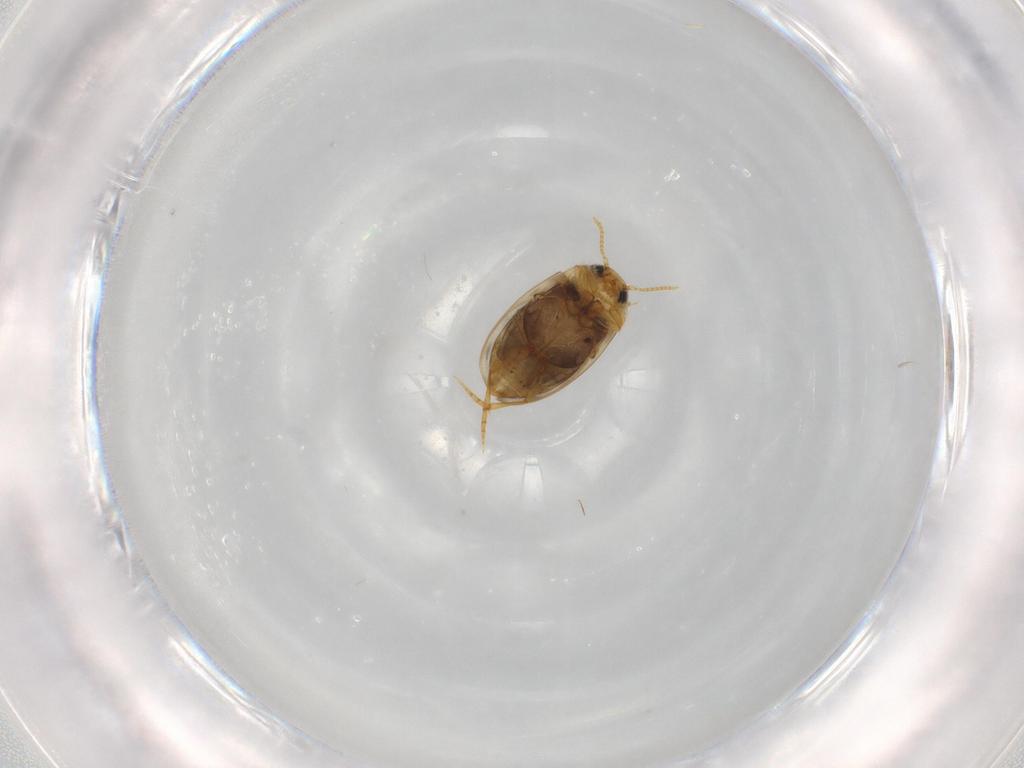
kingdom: Animalia
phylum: Arthropoda
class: Insecta
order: Coleoptera
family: Dytiscidae
